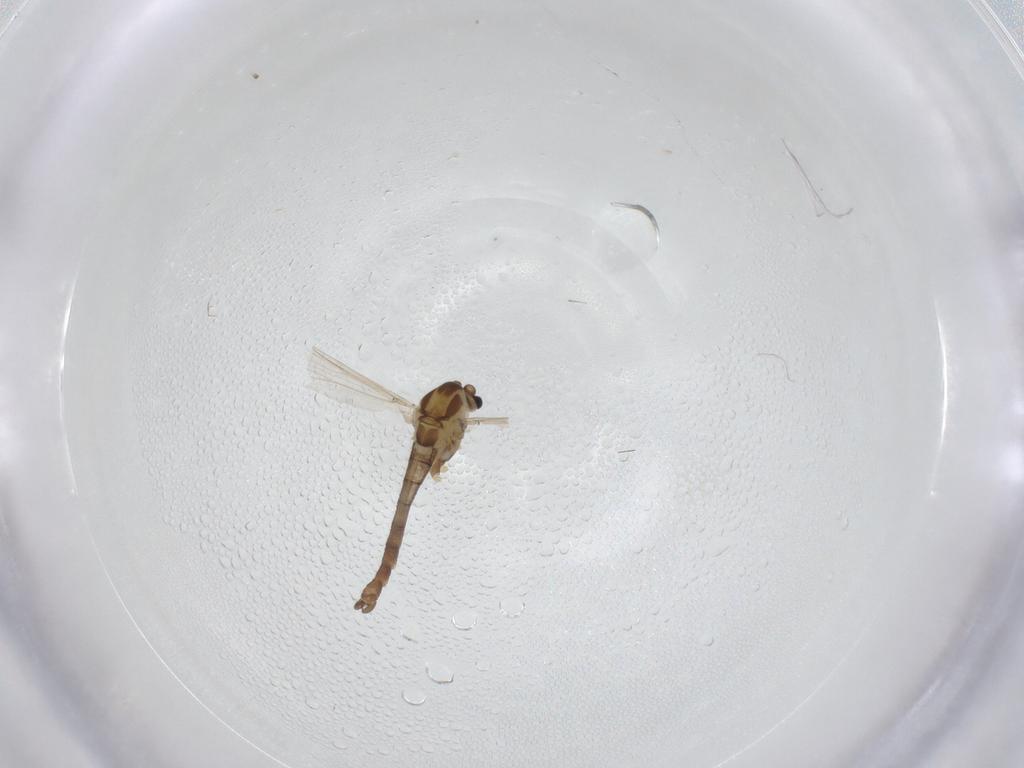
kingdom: Animalia
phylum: Arthropoda
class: Insecta
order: Diptera
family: Chironomidae
